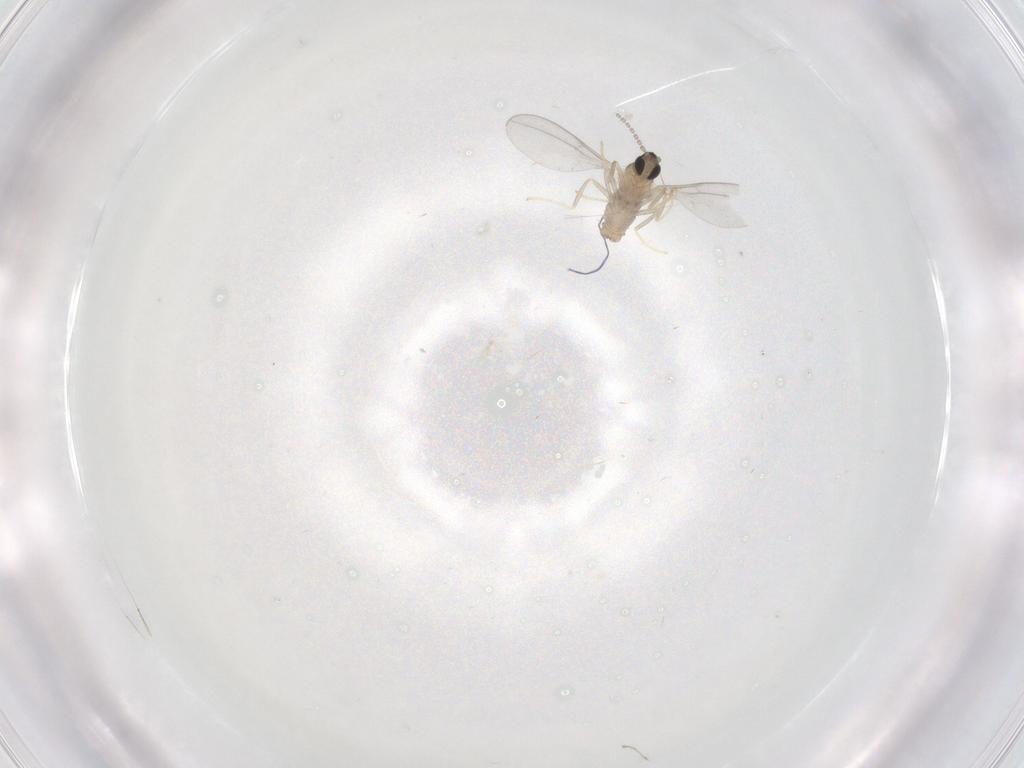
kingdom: Animalia
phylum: Arthropoda
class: Insecta
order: Diptera
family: Cecidomyiidae
